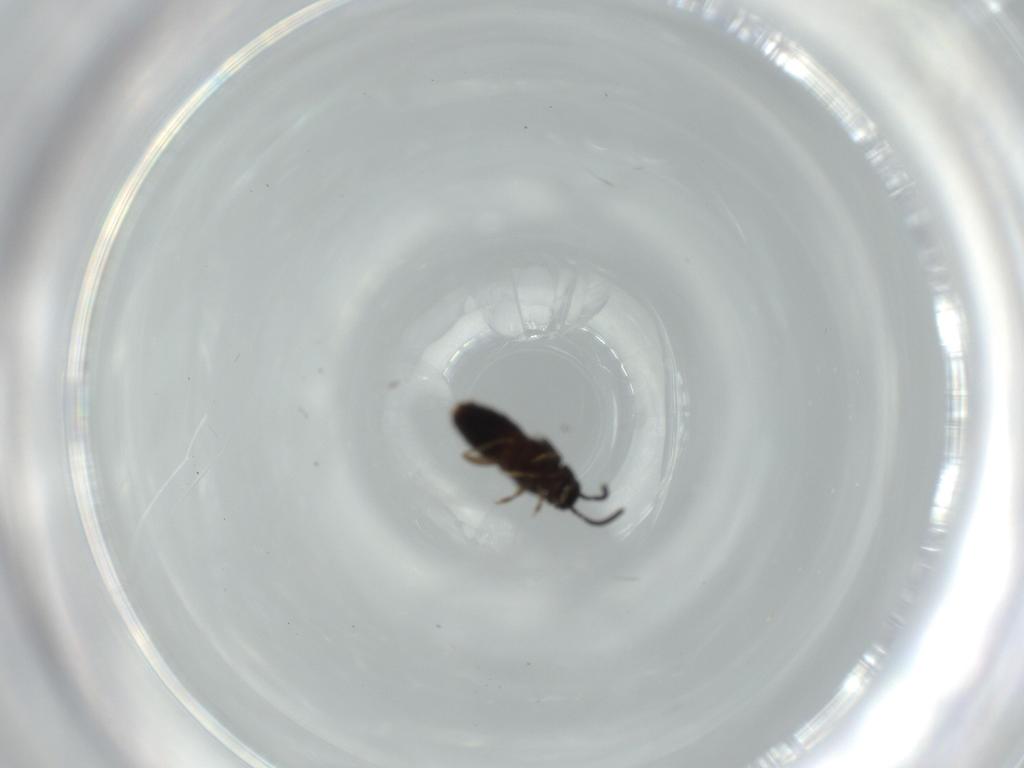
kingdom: Animalia
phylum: Arthropoda
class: Insecta
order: Coleoptera
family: Staphylinidae
